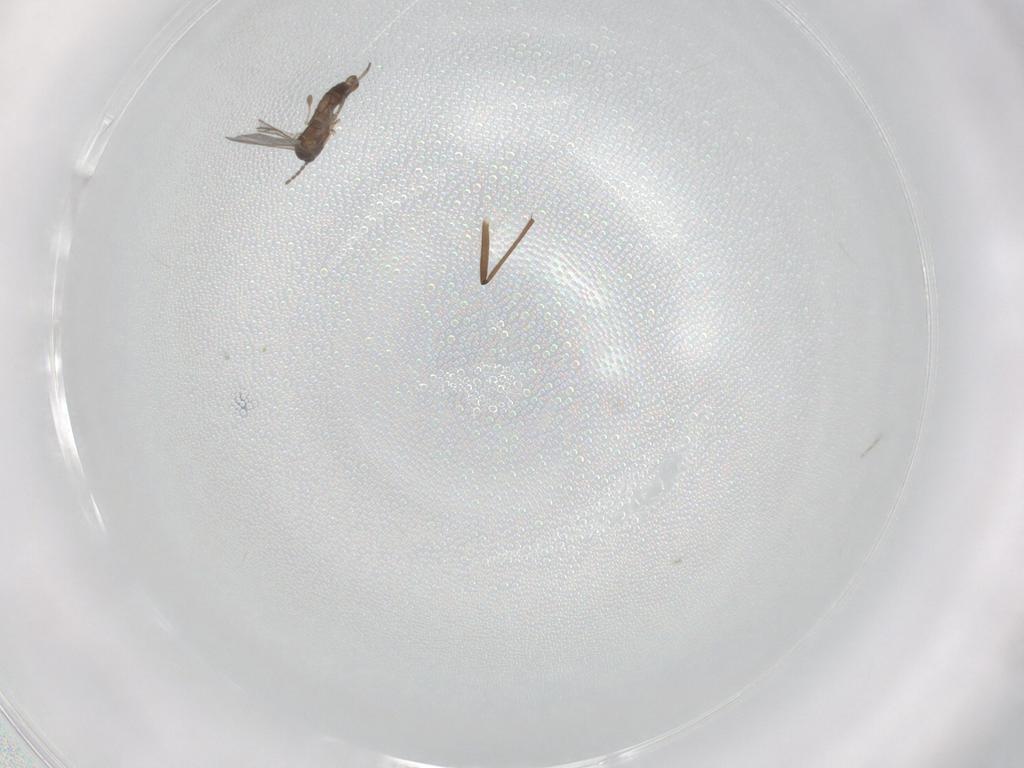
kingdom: Animalia
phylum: Arthropoda
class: Insecta
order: Diptera
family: Sciaridae
